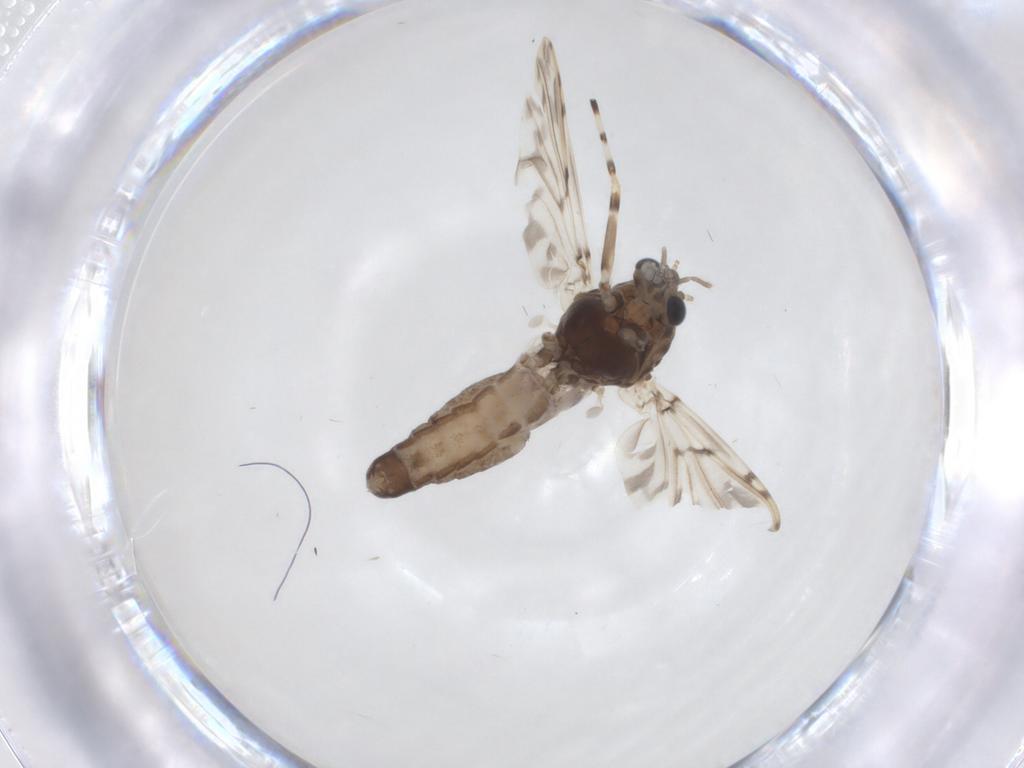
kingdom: Animalia
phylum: Arthropoda
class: Insecta
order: Diptera
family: Chironomidae
